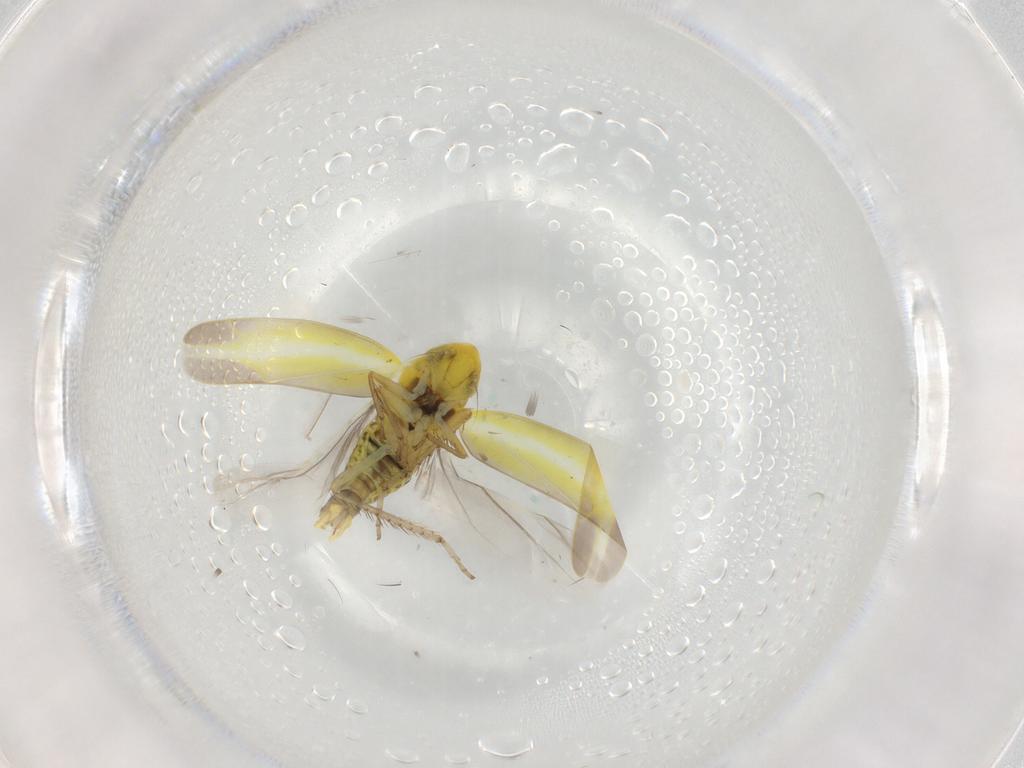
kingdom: Animalia
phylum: Arthropoda
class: Insecta
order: Hemiptera
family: Cicadellidae
